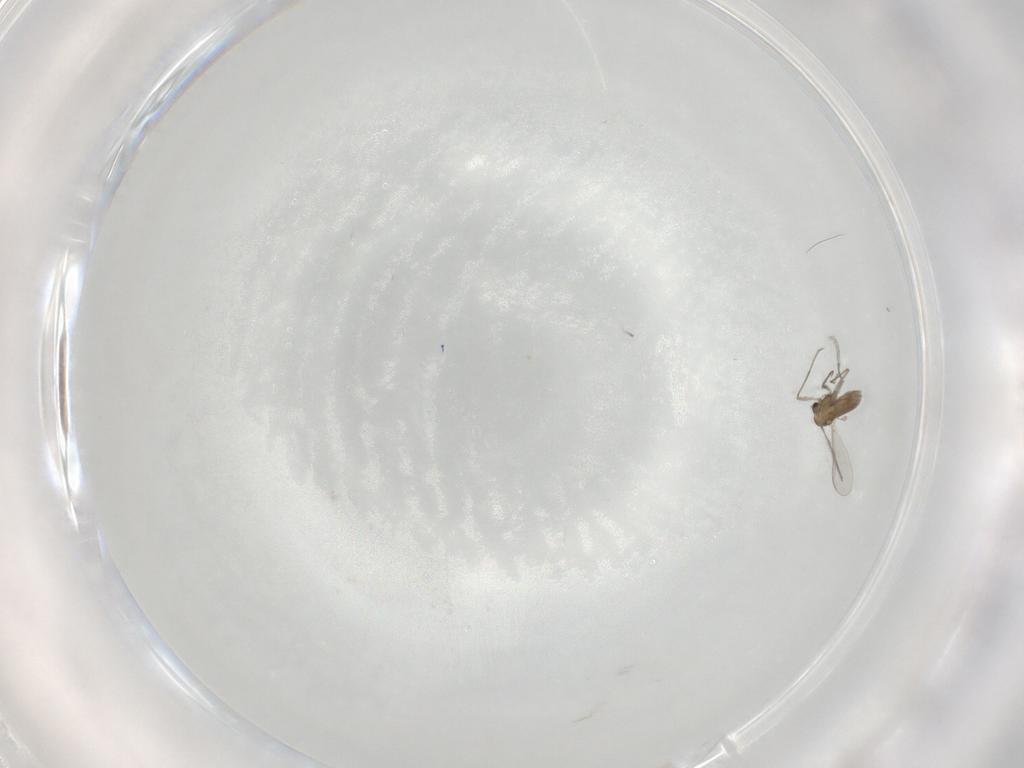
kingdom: Animalia
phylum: Arthropoda
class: Insecta
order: Diptera
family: Chironomidae
